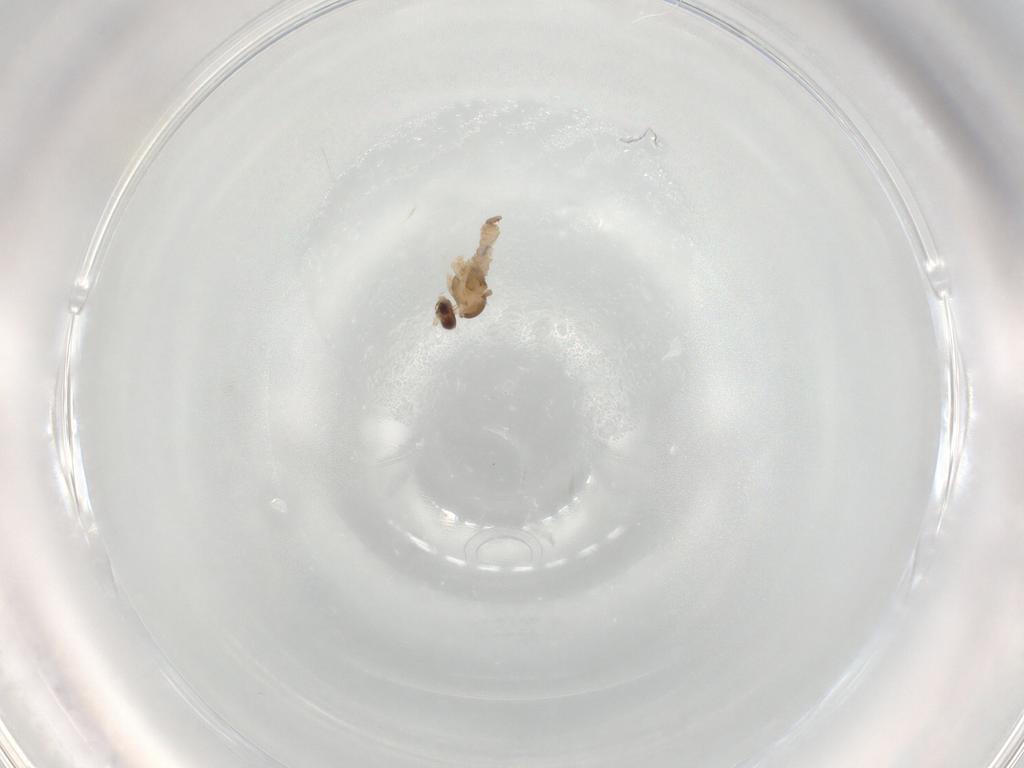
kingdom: Animalia
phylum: Arthropoda
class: Insecta
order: Diptera
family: Cecidomyiidae
